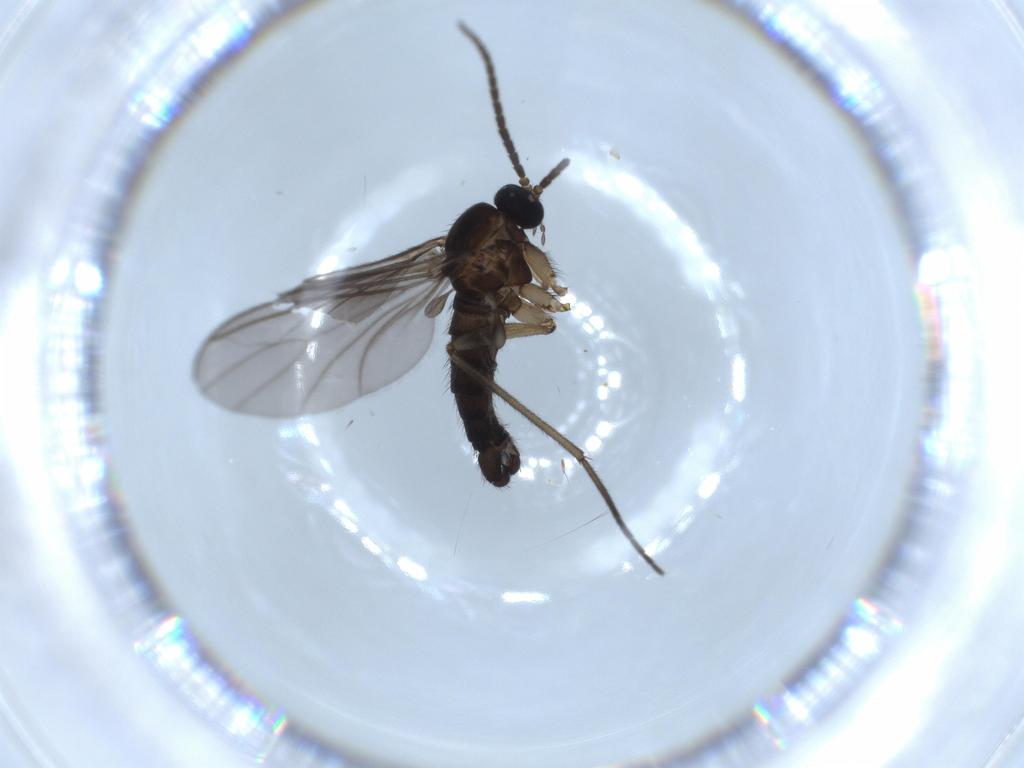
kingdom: Animalia
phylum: Arthropoda
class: Insecta
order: Diptera
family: Sciaridae
